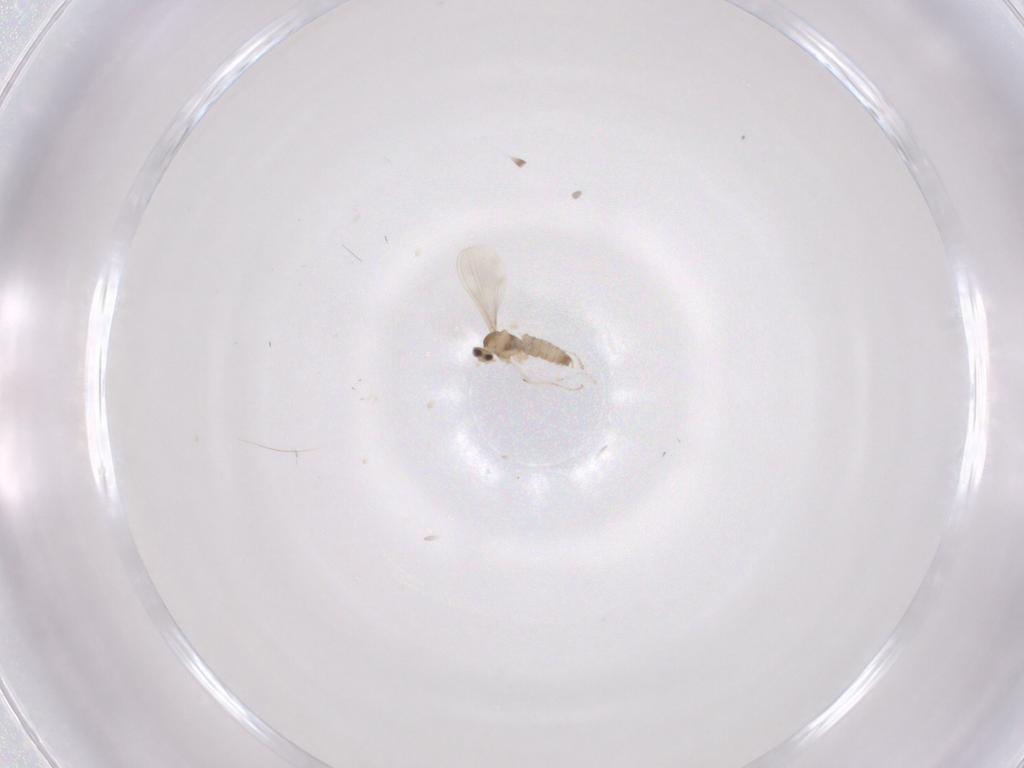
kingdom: Animalia
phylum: Arthropoda
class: Insecta
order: Diptera
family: Cecidomyiidae
